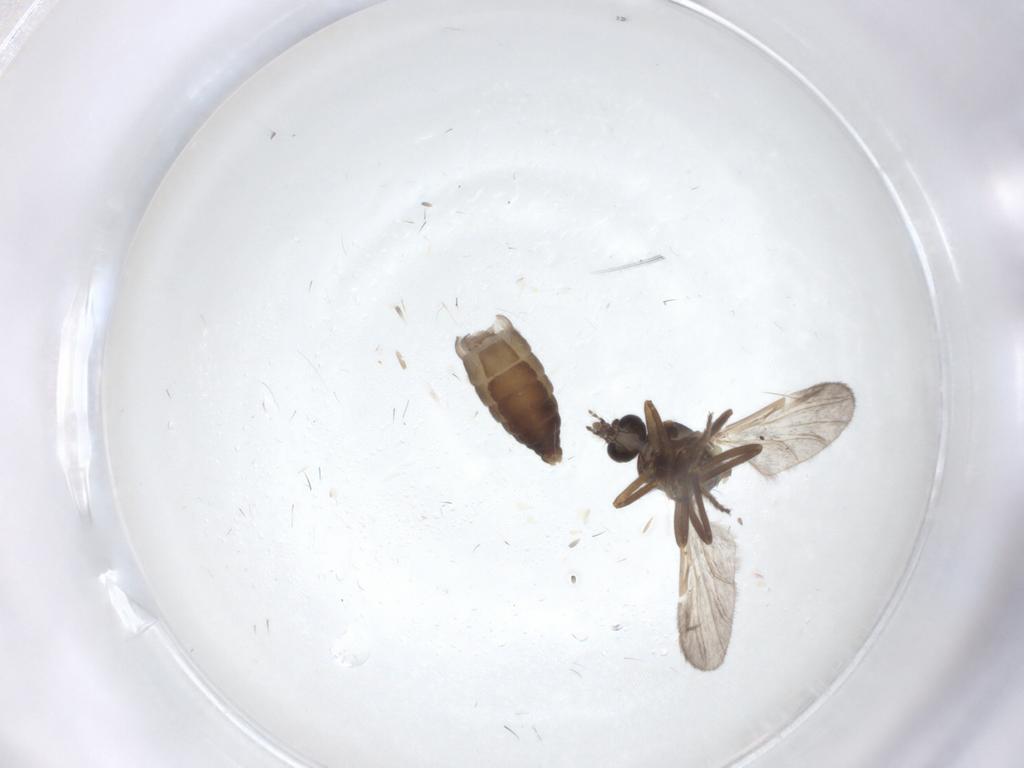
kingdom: Animalia
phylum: Arthropoda
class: Insecta
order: Diptera
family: Ceratopogonidae
